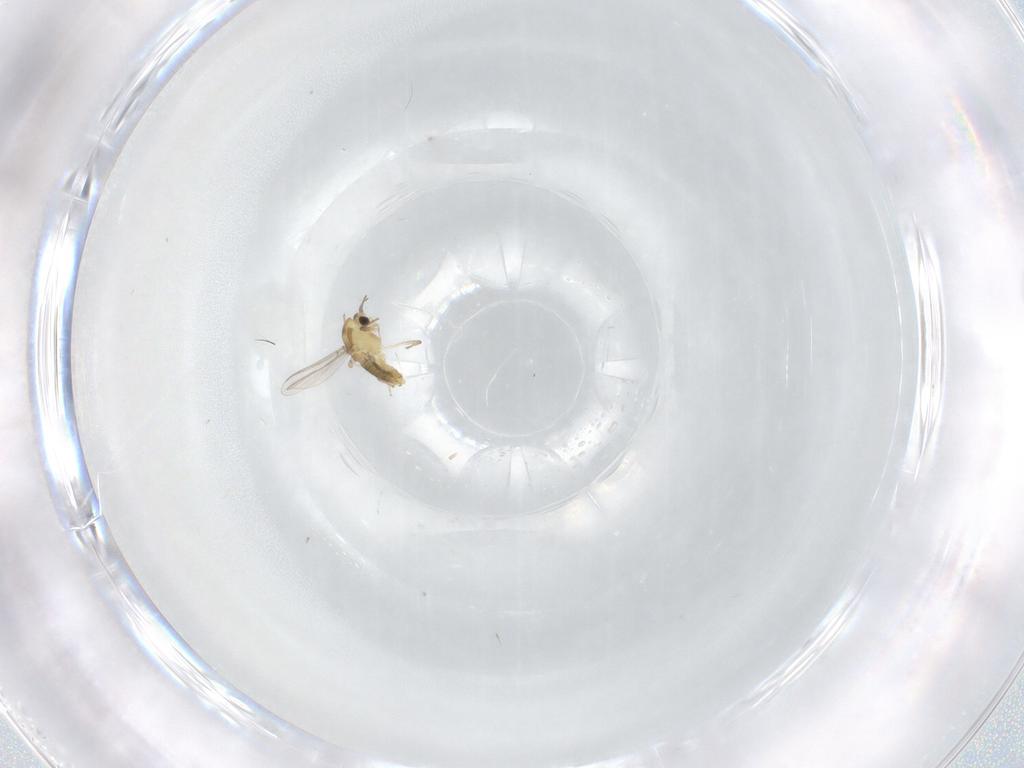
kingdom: Animalia
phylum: Arthropoda
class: Insecta
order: Diptera
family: Chironomidae
